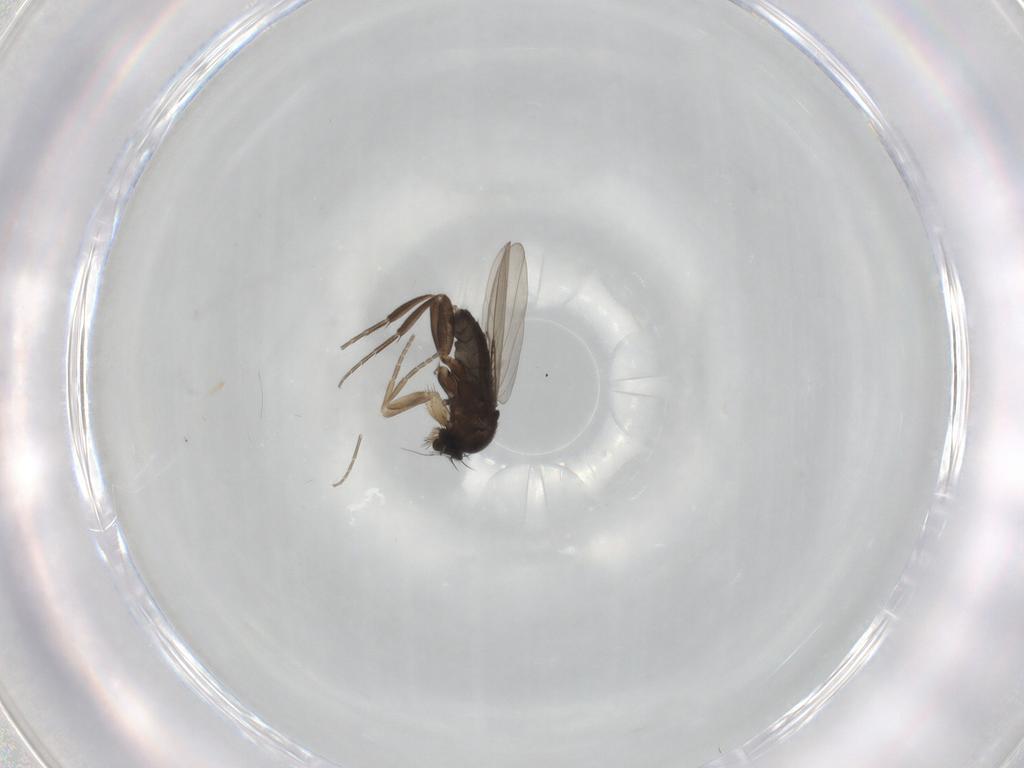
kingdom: Animalia
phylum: Arthropoda
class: Insecta
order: Diptera
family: Phoridae
